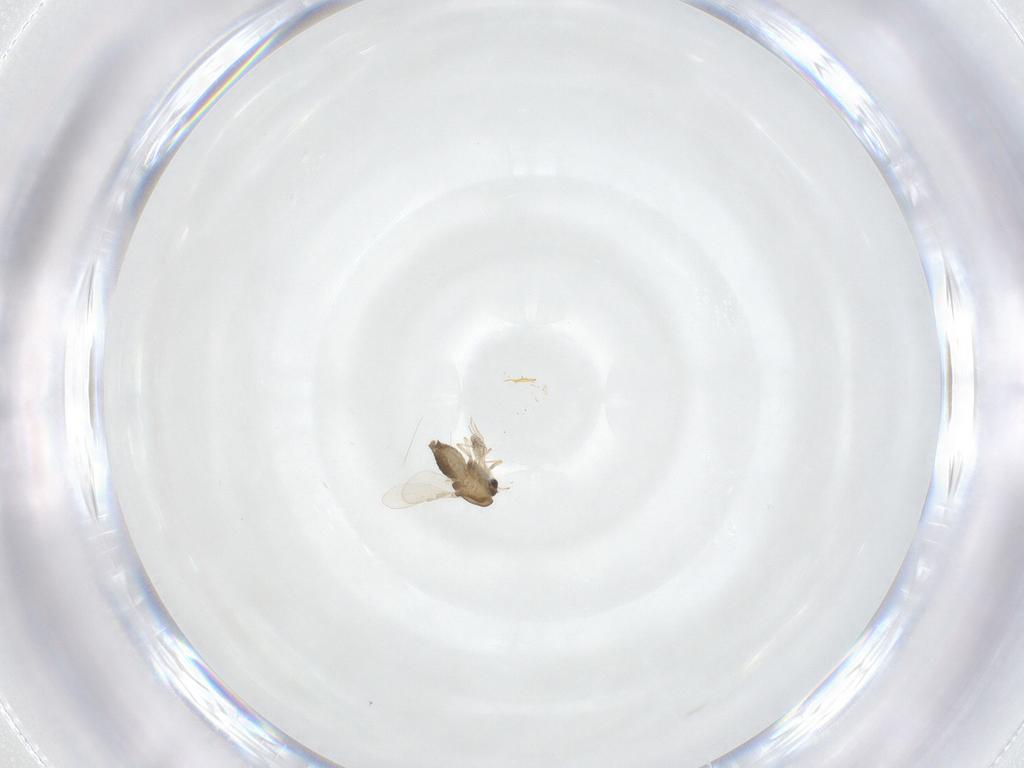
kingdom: Animalia
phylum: Arthropoda
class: Insecta
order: Diptera
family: Chironomidae
